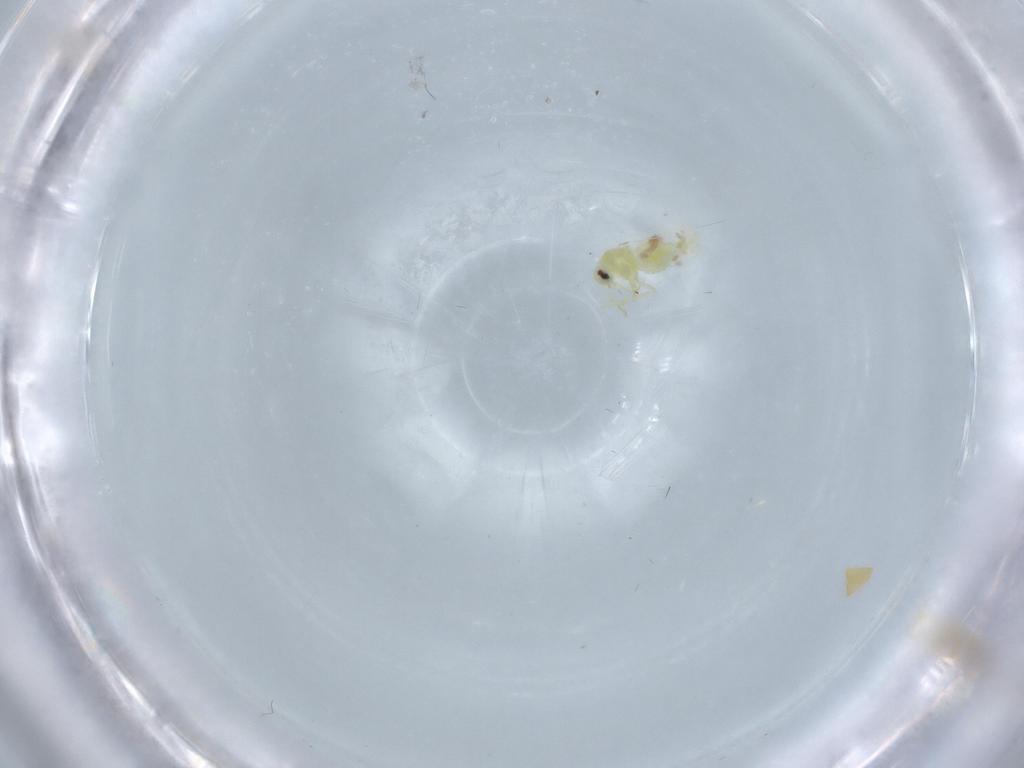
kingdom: Animalia
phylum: Arthropoda
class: Insecta
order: Hemiptera
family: Aleyrodidae
